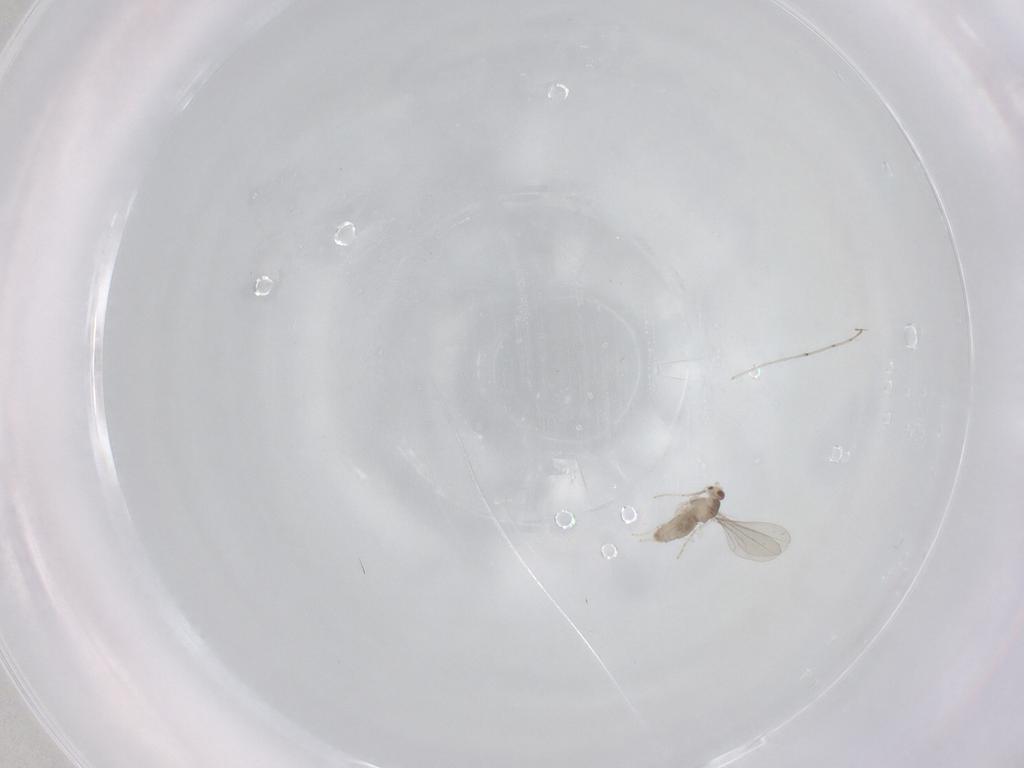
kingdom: Animalia
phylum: Arthropoda
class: Insecta
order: Diptera
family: Cecidomyiidae
